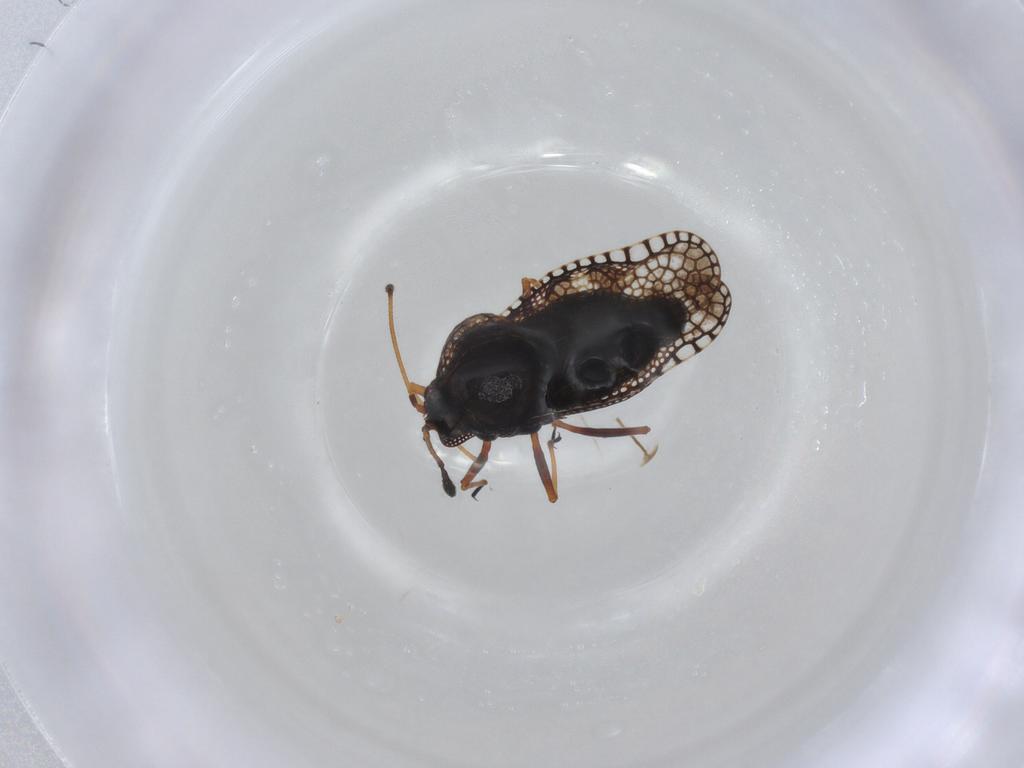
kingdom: Animalia
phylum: Arthropoda
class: Insecta
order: Hemiptera
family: Tingidae
